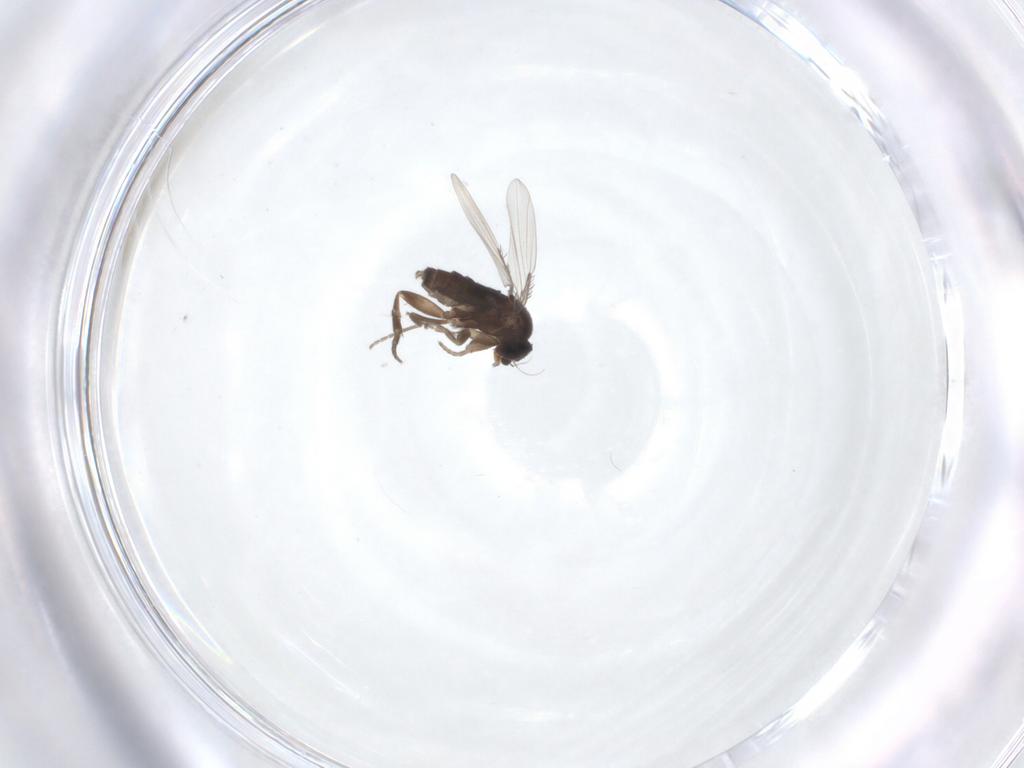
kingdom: Animalia
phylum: Arthropoda
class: Insecta
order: Diptera
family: Phoridae
